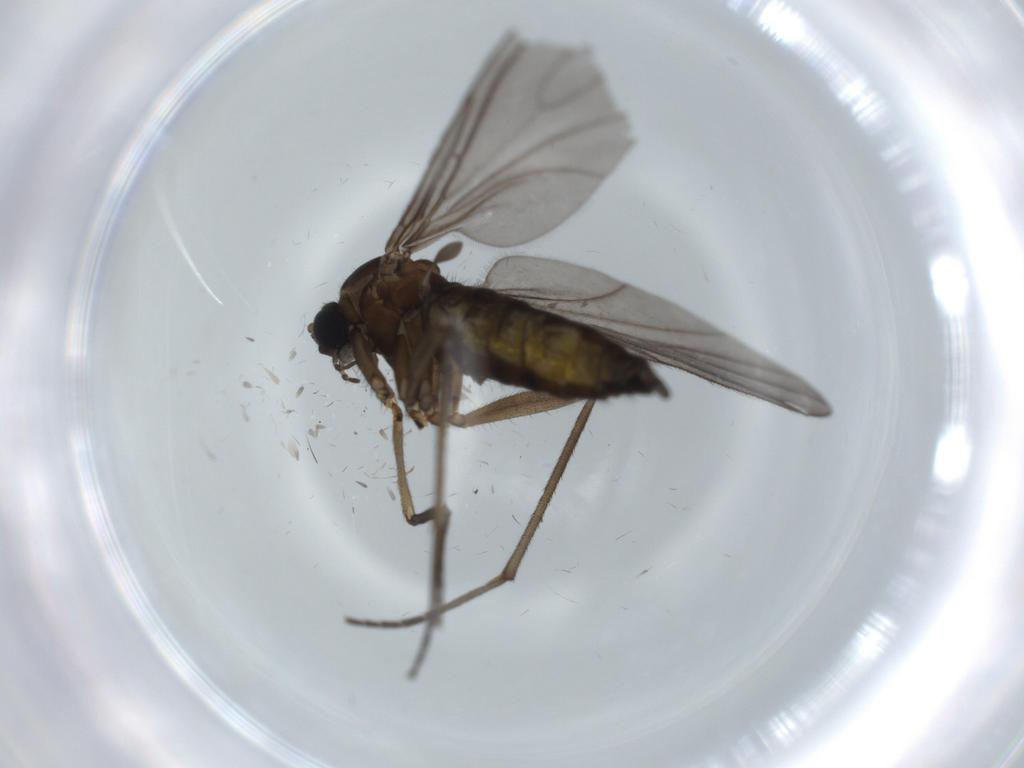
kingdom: Animalia
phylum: Arthropoda
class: Insecta
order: Diptera
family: Sciaridae
